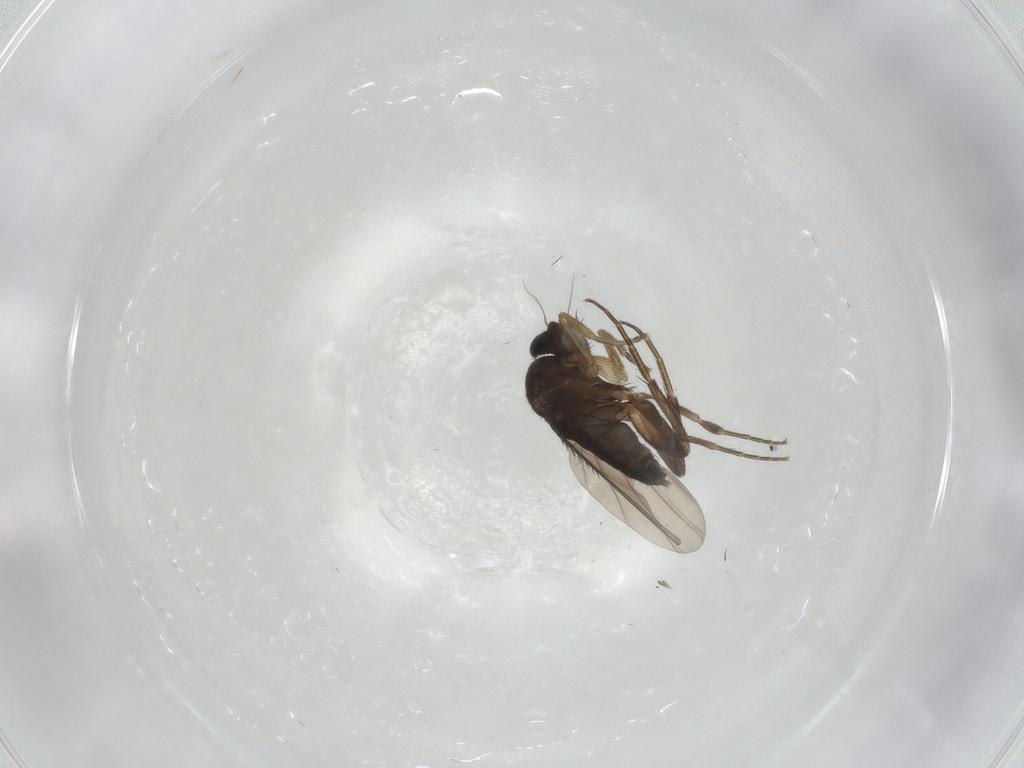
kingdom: Animalia
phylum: Arthropoda
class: Insecta
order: Diptera
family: Phoridae
